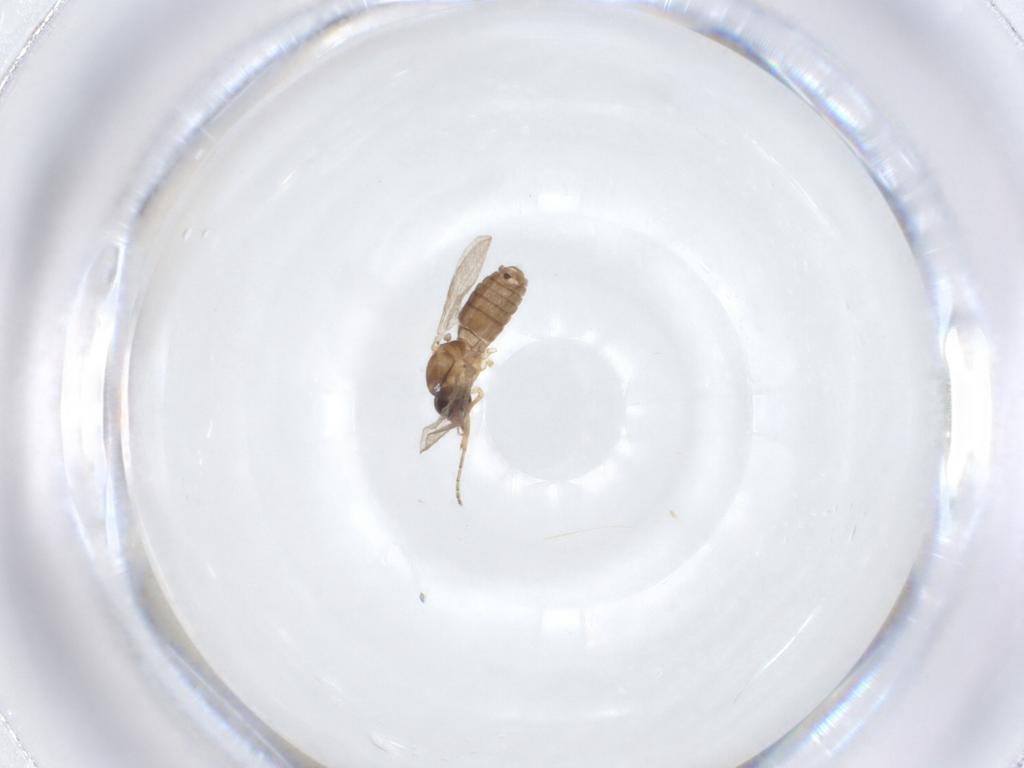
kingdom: Animalia
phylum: Arthropoda
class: Insecta
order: Diptera
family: Ceratopogonidae
